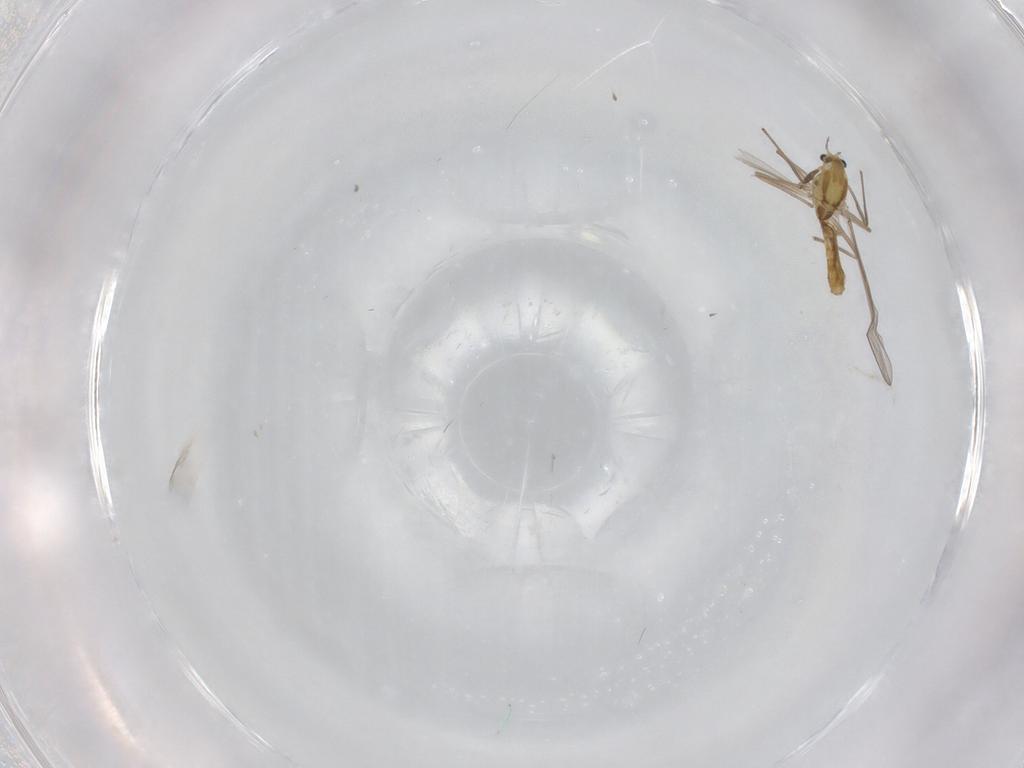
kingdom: Animalia
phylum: Arthropoda
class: Insecta
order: Diptera
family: Chironomidae
